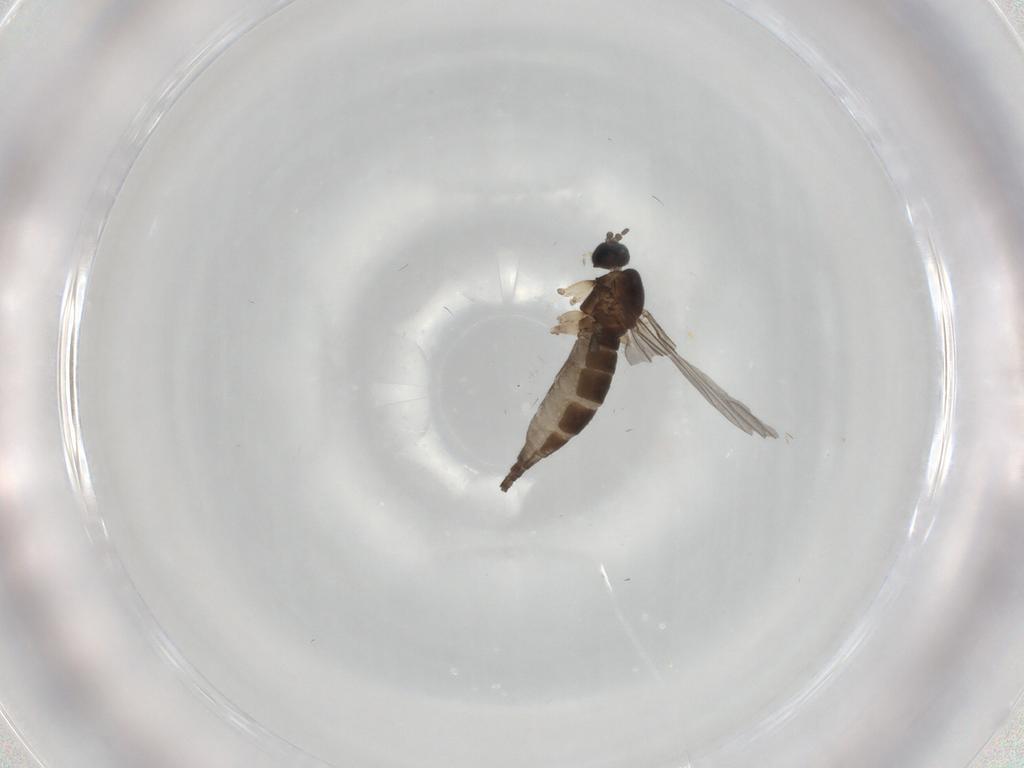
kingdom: Animalia
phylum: Arthropoda
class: Insecta
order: Diptera
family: Sciaridae
